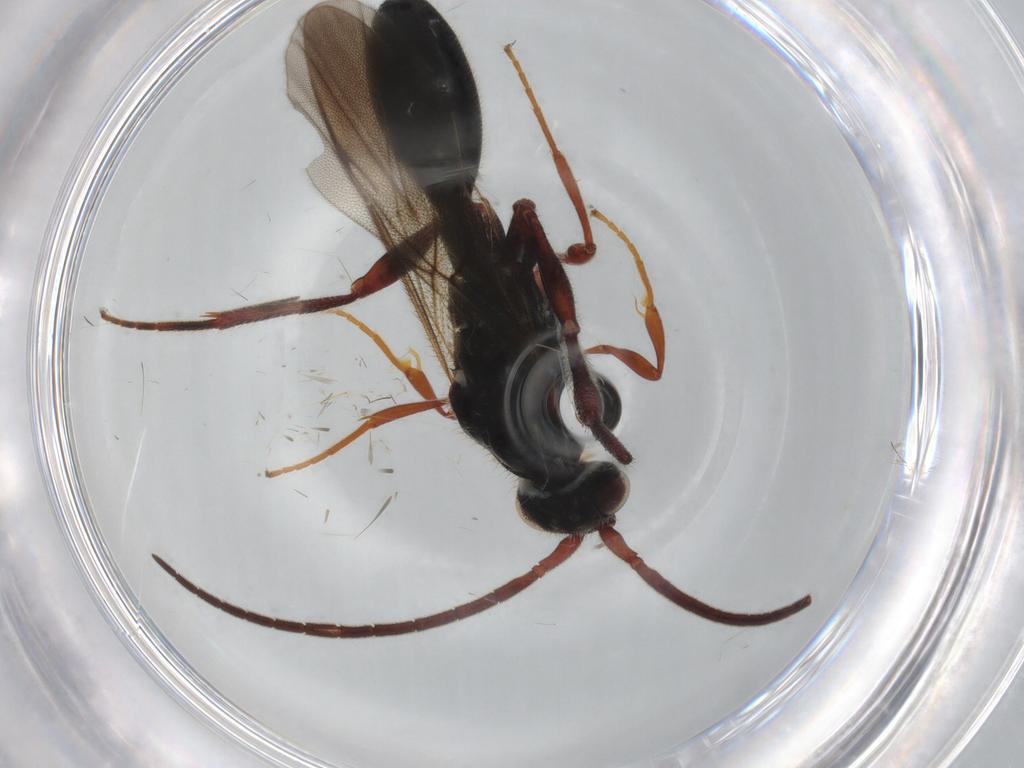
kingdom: Animalia
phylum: Arthropoda
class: Insecta
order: Hymenoptera
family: Diapriidae
